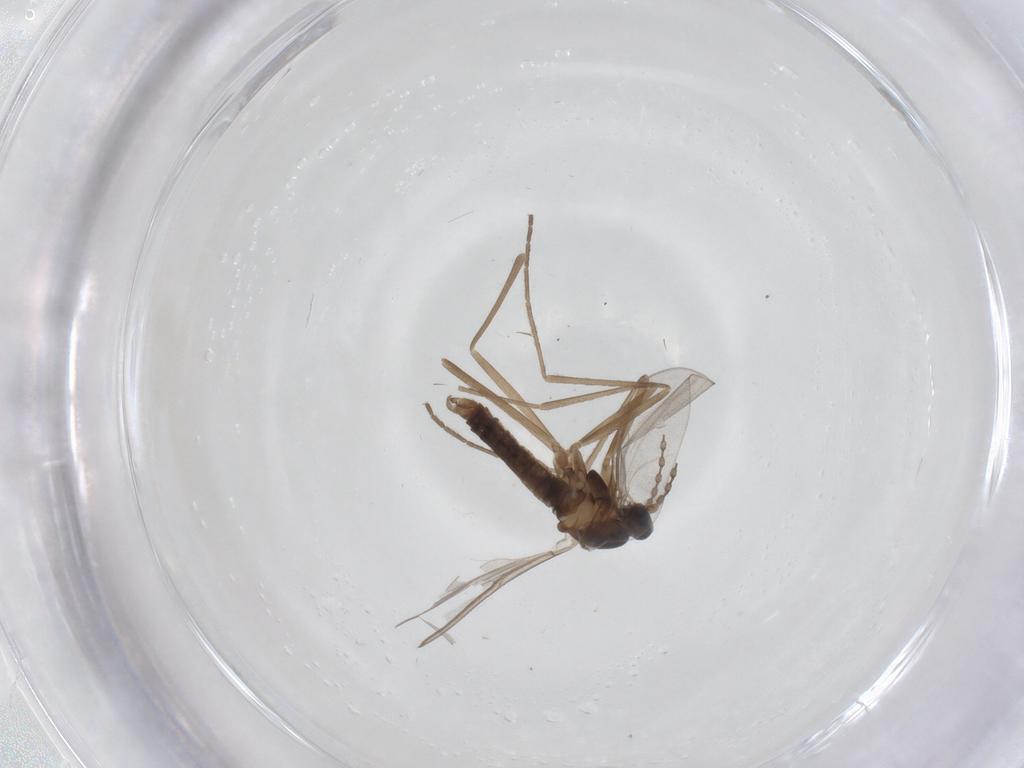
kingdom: Animalia
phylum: Arthropoda
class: Insecta
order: Diptera
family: Cecidomyiidae
